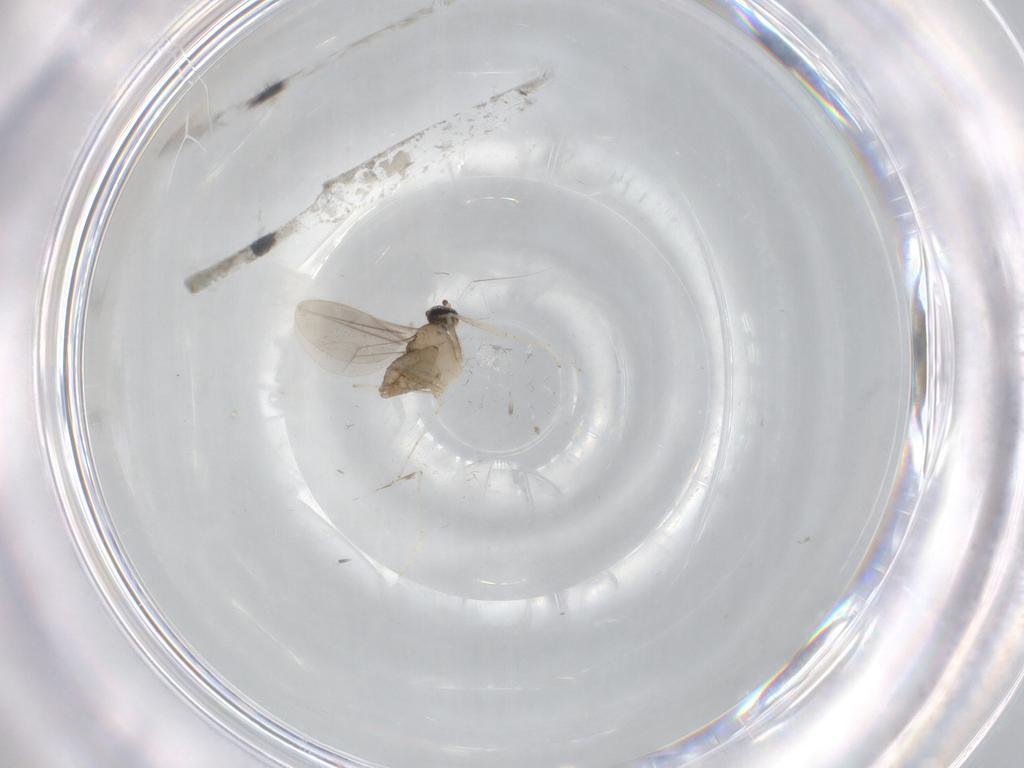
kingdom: Animalia
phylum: Arthropoda
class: Insecta
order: Diptera
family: Cecidomyiidae
